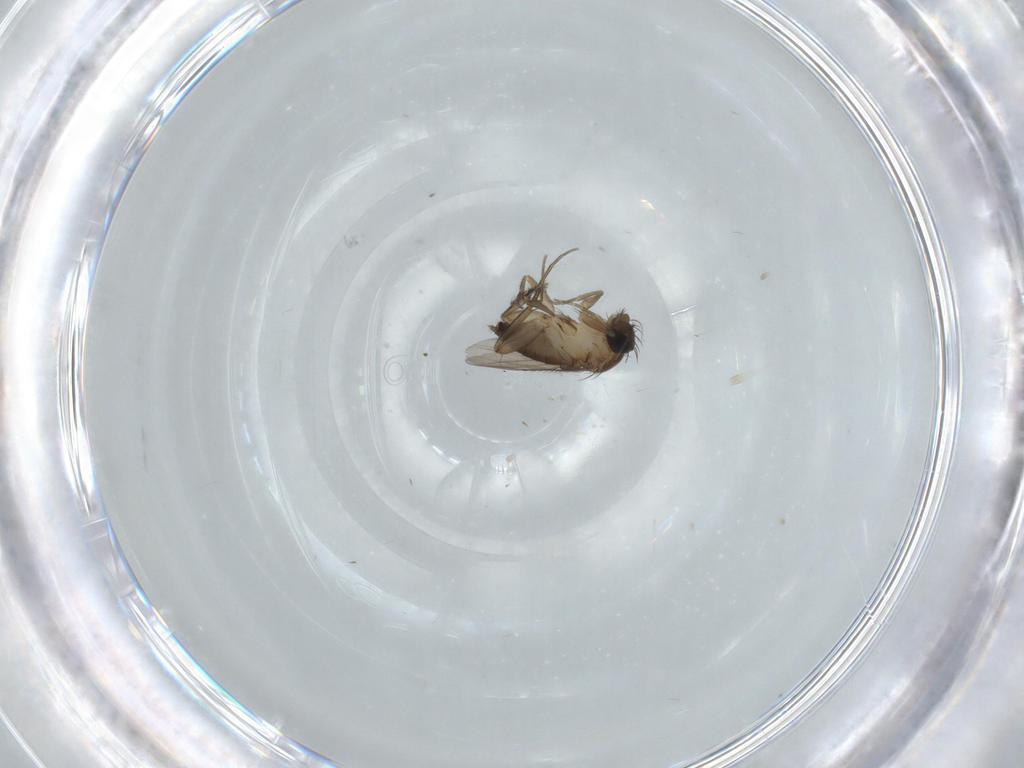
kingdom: Animalia
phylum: Arthropoda
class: Insecta
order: Diptera
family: Phoridae
